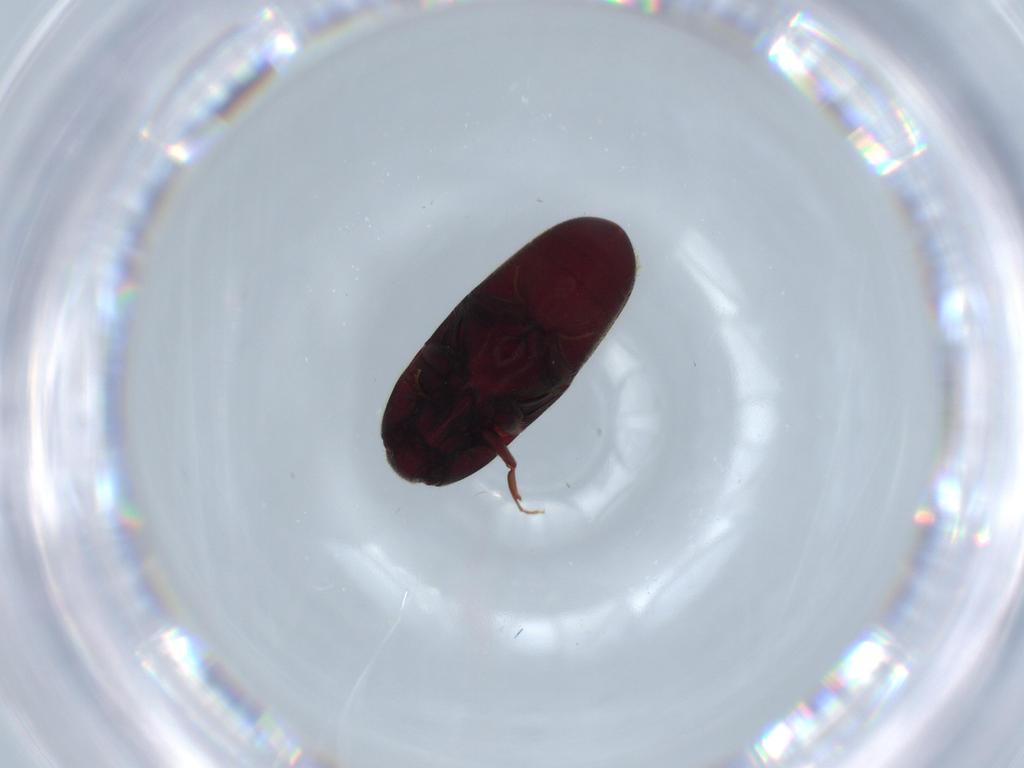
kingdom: Animalia
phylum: Arthropoda
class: Insecta
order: Coleoptera
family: Throscidae
